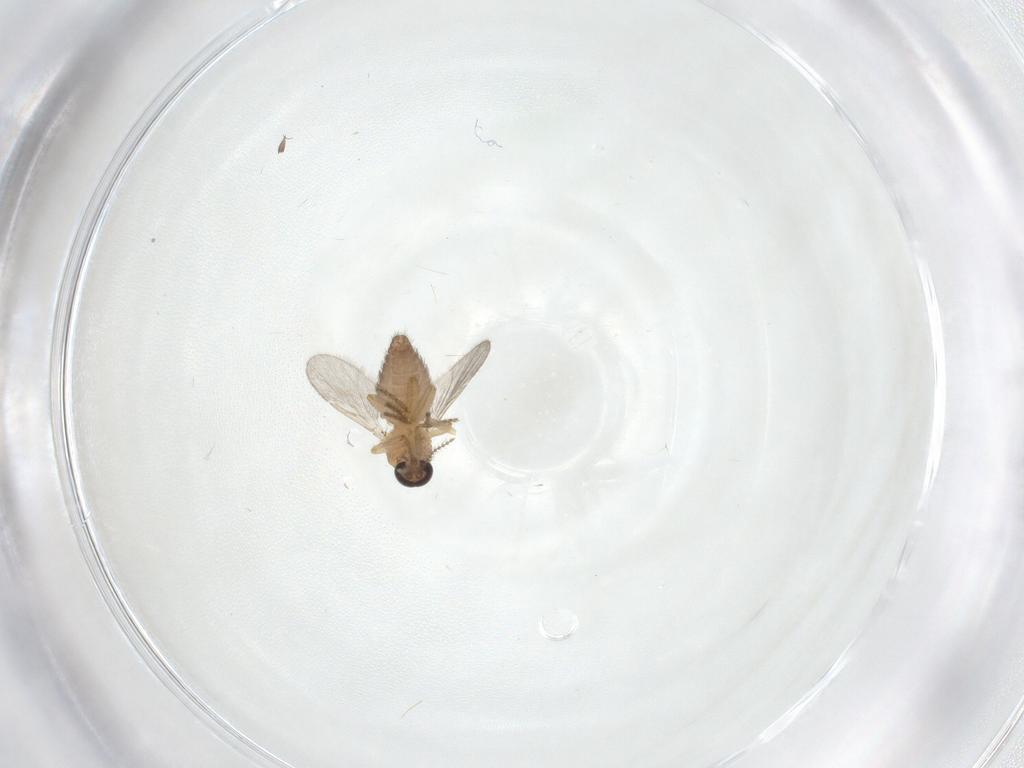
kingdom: Animalia
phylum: Arthropoda
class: Insecta
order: Diptera
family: Ceratopogonidae
